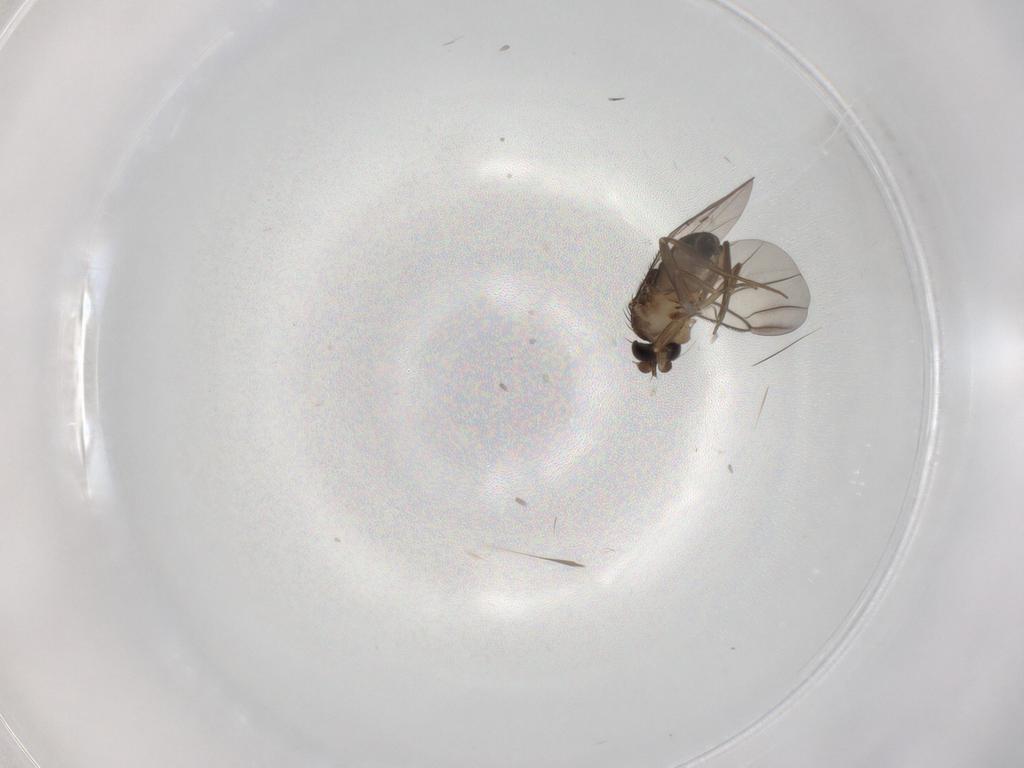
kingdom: Animalia
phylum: Arthropoda
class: Insecta
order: Diptera
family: Phoridae
